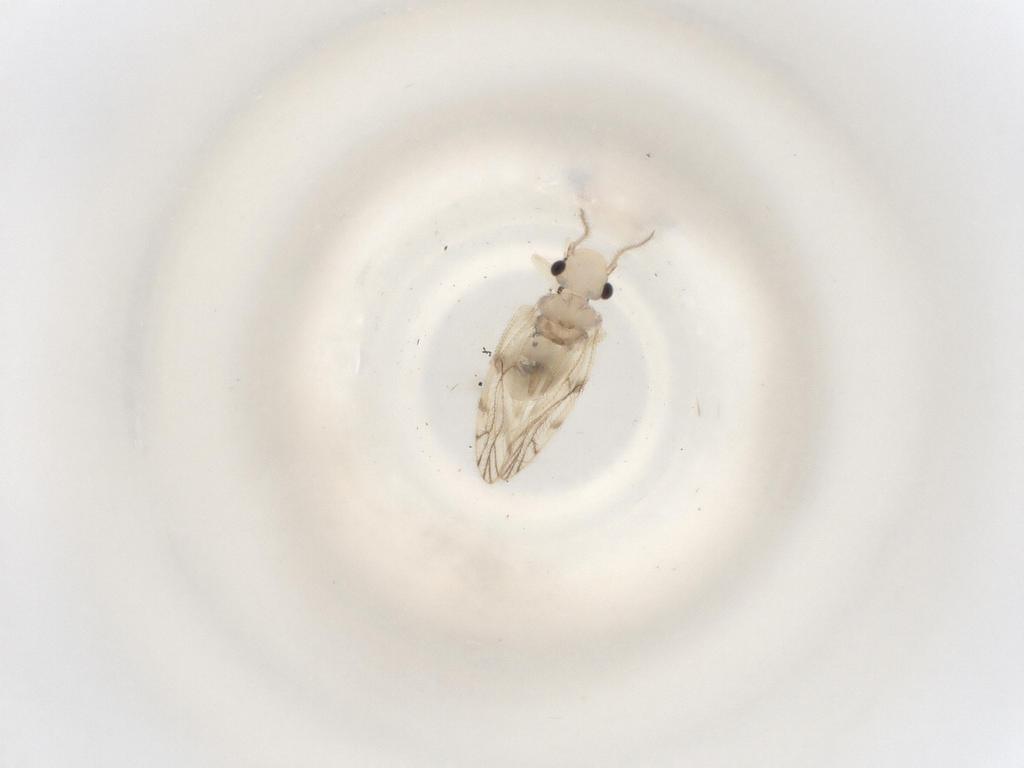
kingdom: Animalia
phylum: Arthropoda
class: Insecta
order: Psocodea
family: Pseudocaeciliidae
